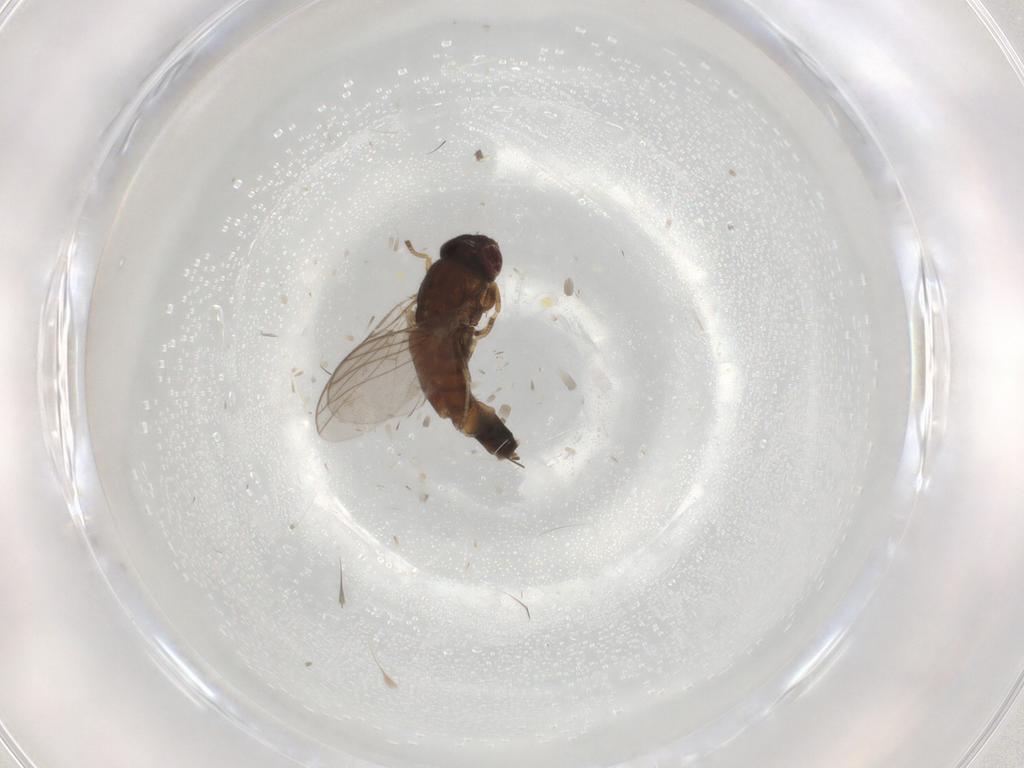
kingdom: Animalia
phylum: Arthropoda
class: Insecta
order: Diptera
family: Chloropidae
